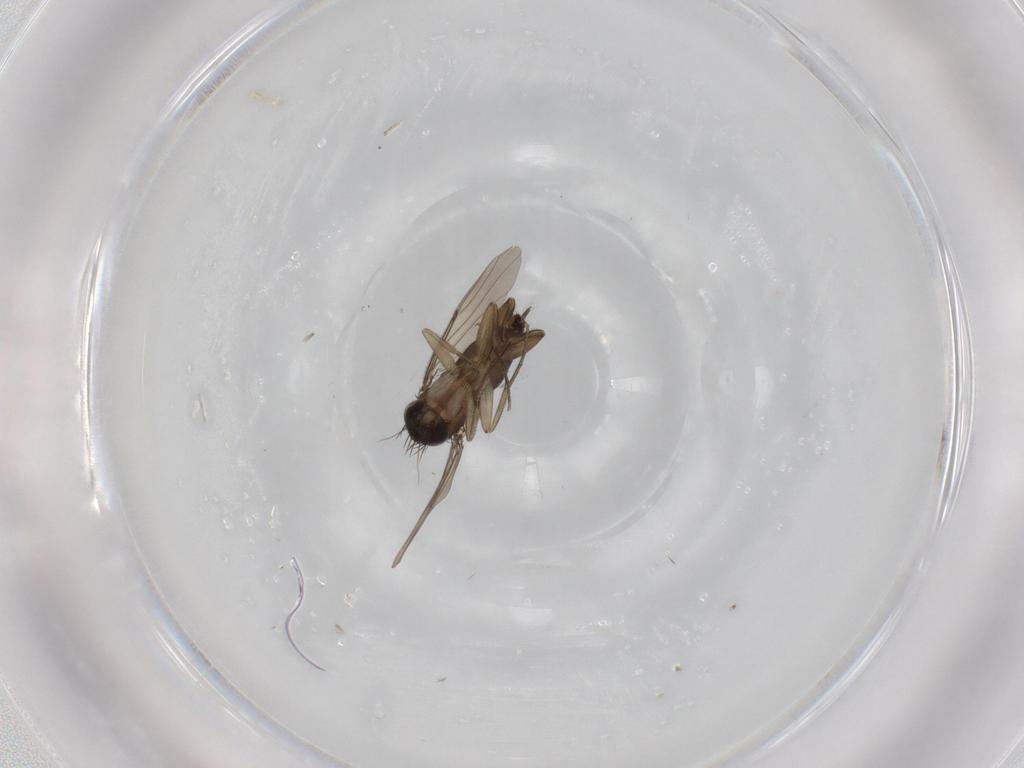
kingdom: Animalia
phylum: Arthropoda
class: Insecta
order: Diptera
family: Phoridae
